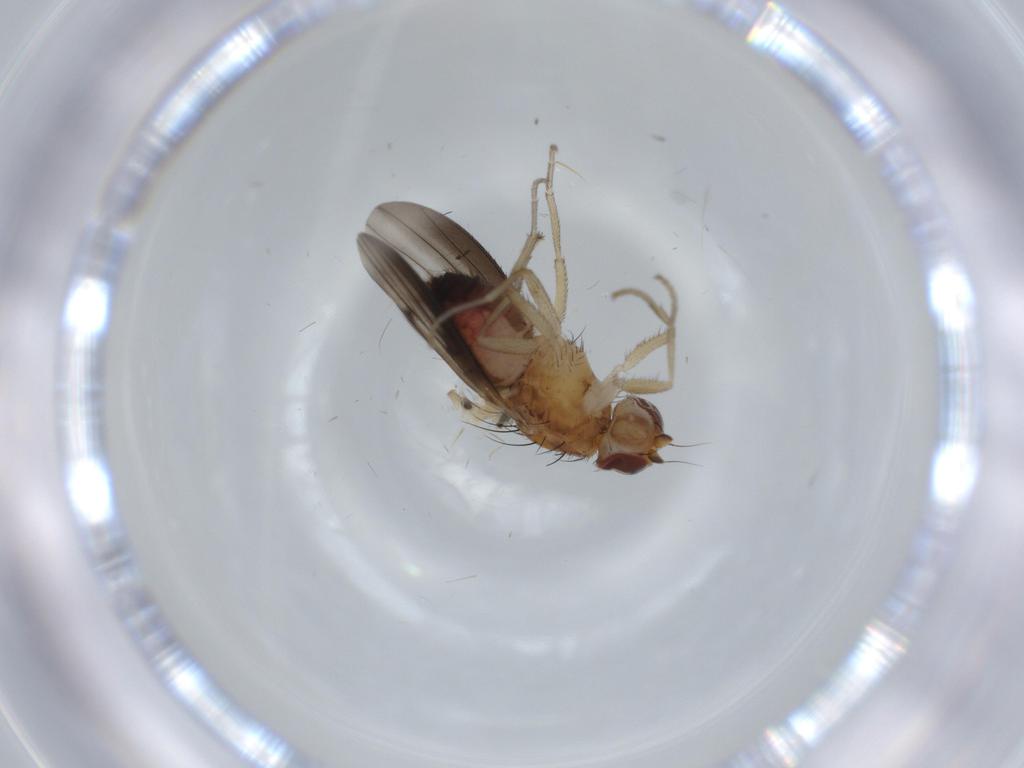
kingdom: Animalia
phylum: Arthropoda
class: Insecta
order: Diptera
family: Cecidomyiidae
